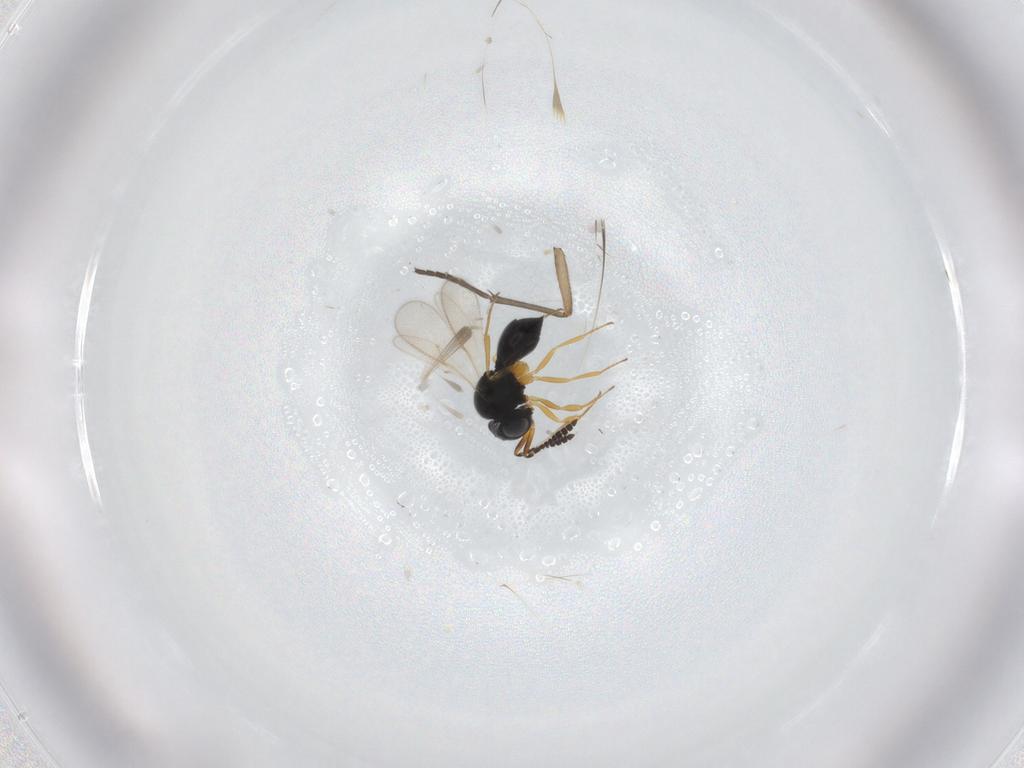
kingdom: Animalia
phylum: Arthropoda
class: Insecta
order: Hymenoptera
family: Scelionidae
